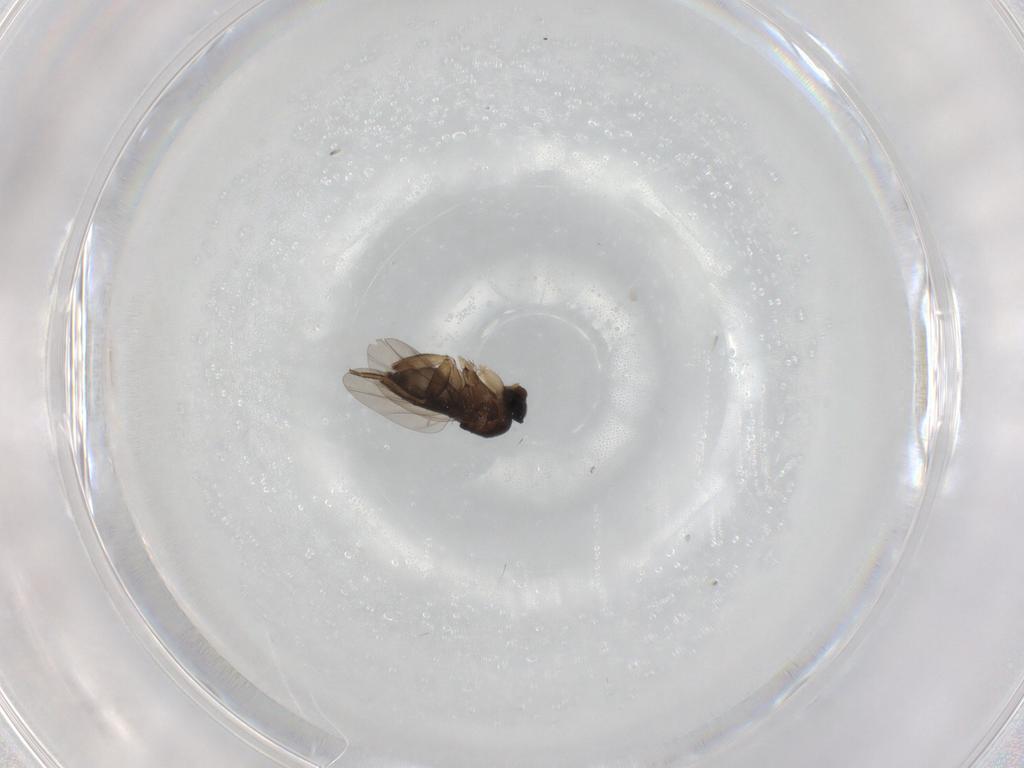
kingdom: Animalia
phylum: Arthropoda
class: Insecta
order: Diptera
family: Phoridae
